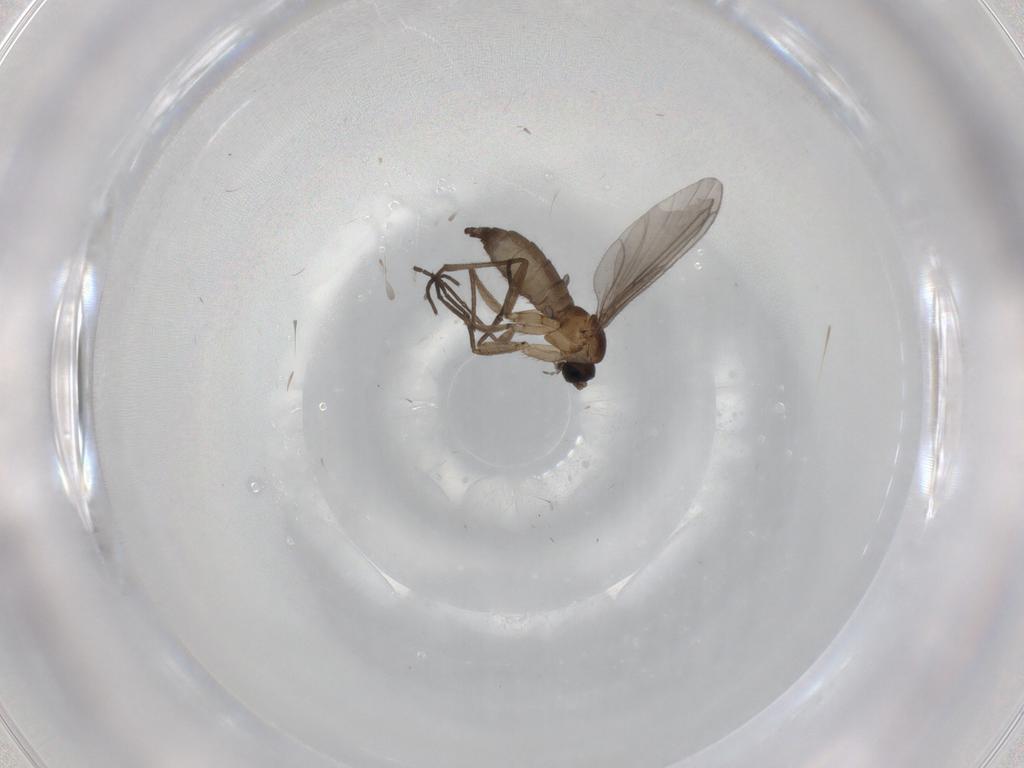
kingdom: Animalia
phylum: Arthropoda
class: Insecta
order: Diptera
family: Sciaridae
